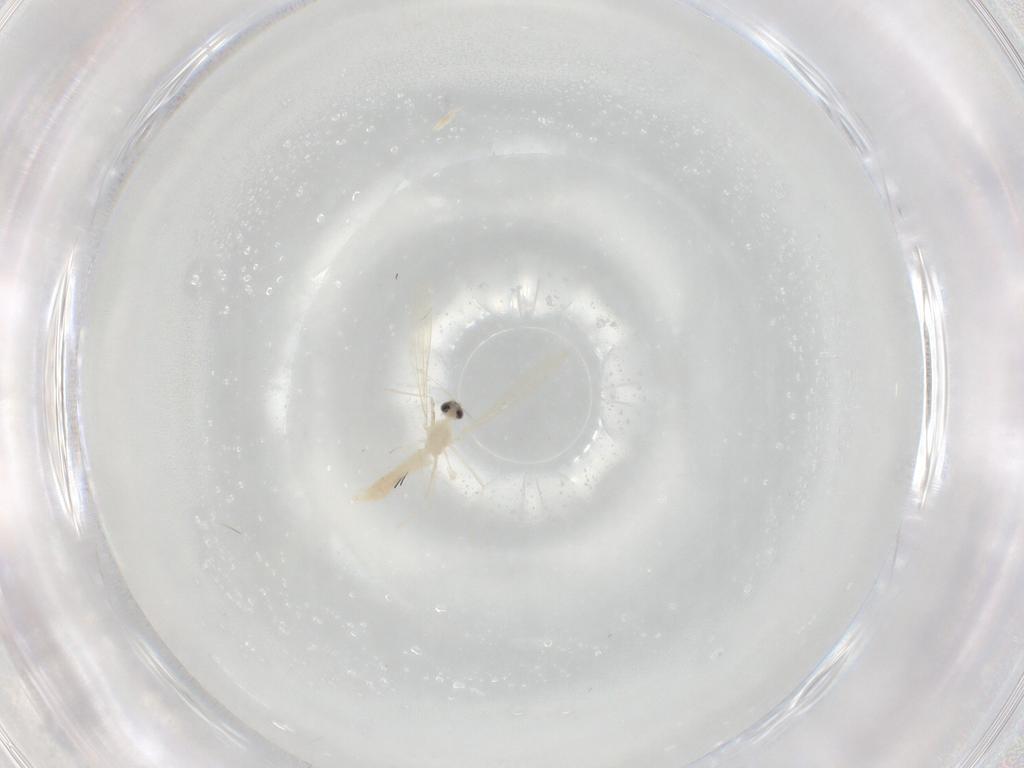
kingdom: Animalia
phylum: Arthropoda
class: Insecta
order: Diptera
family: Cecidomyiidae
